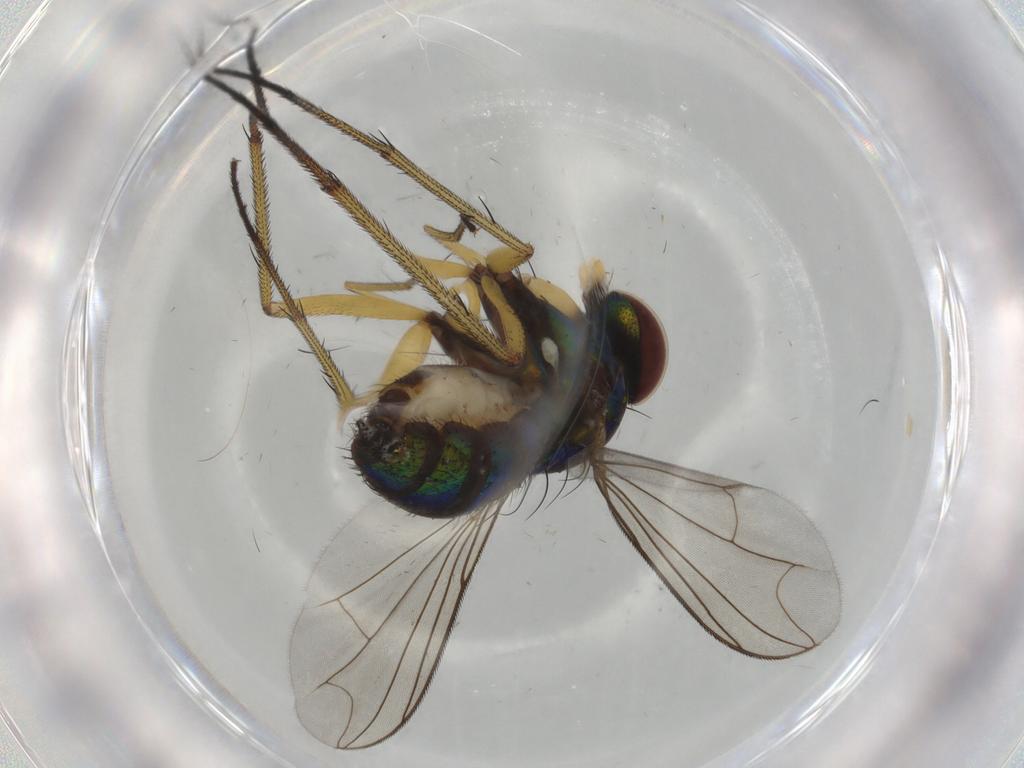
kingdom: Animalia
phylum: Arthropoda
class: Insecta
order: Diptera
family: Dolichopodidae
